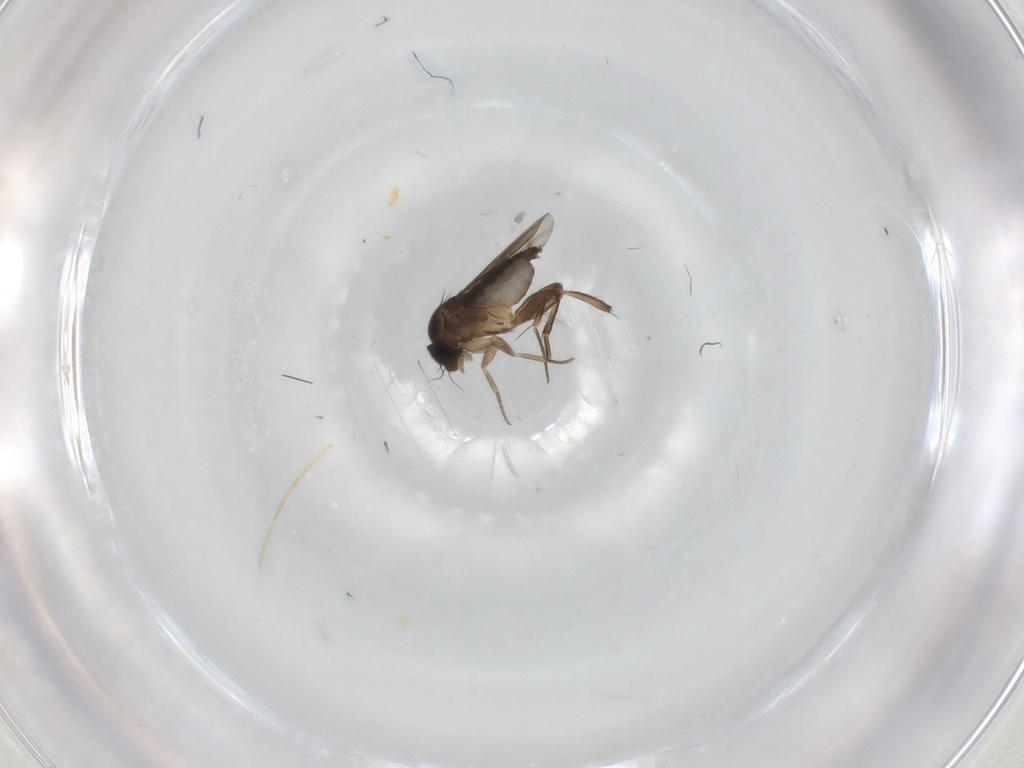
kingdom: Animalia
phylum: Arthropoda
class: Insecta
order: Diptera
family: Phoridae
